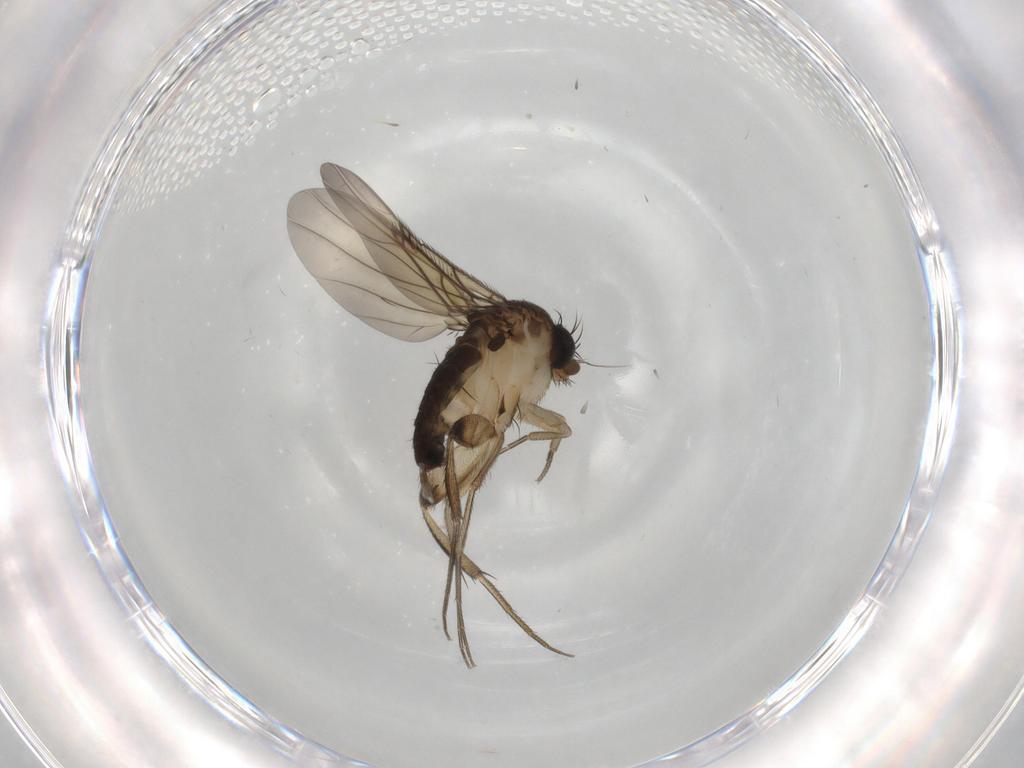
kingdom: Animalia
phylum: Arthropoda
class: Insecta
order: Diptera
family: Phoridae
